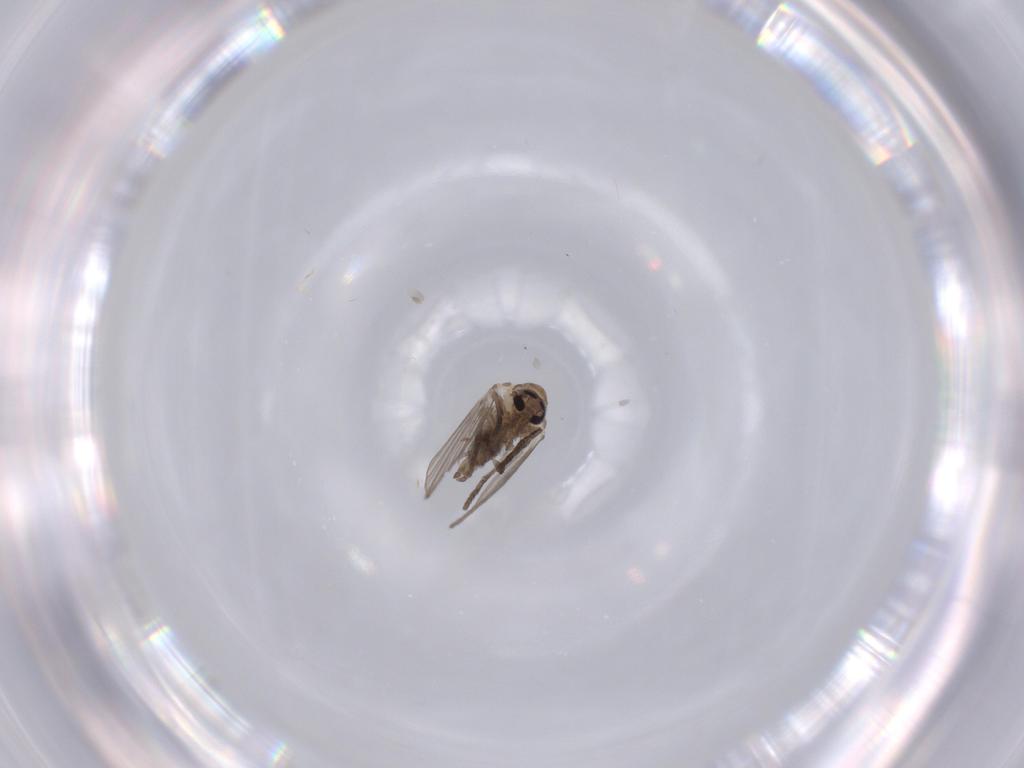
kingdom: Animalia
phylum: Arthropoda
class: Insecta
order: Diptera
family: Psychodidae
